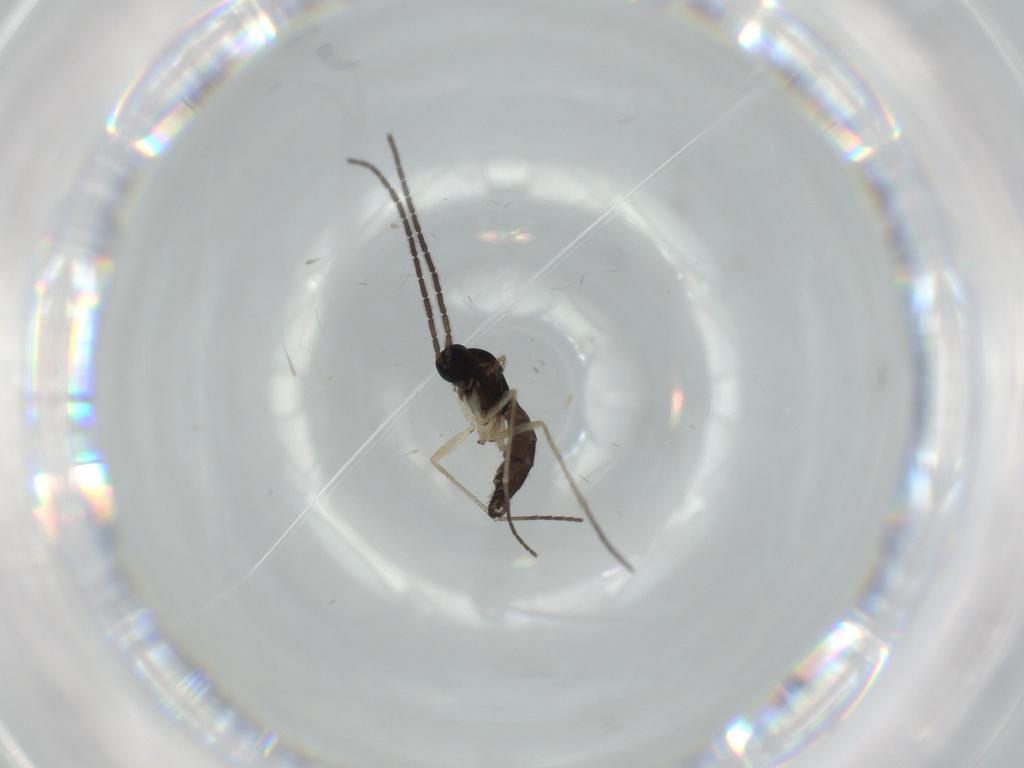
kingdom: Animalia
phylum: Arthropoda
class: Insecta
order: Diptera
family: Sciaridae
